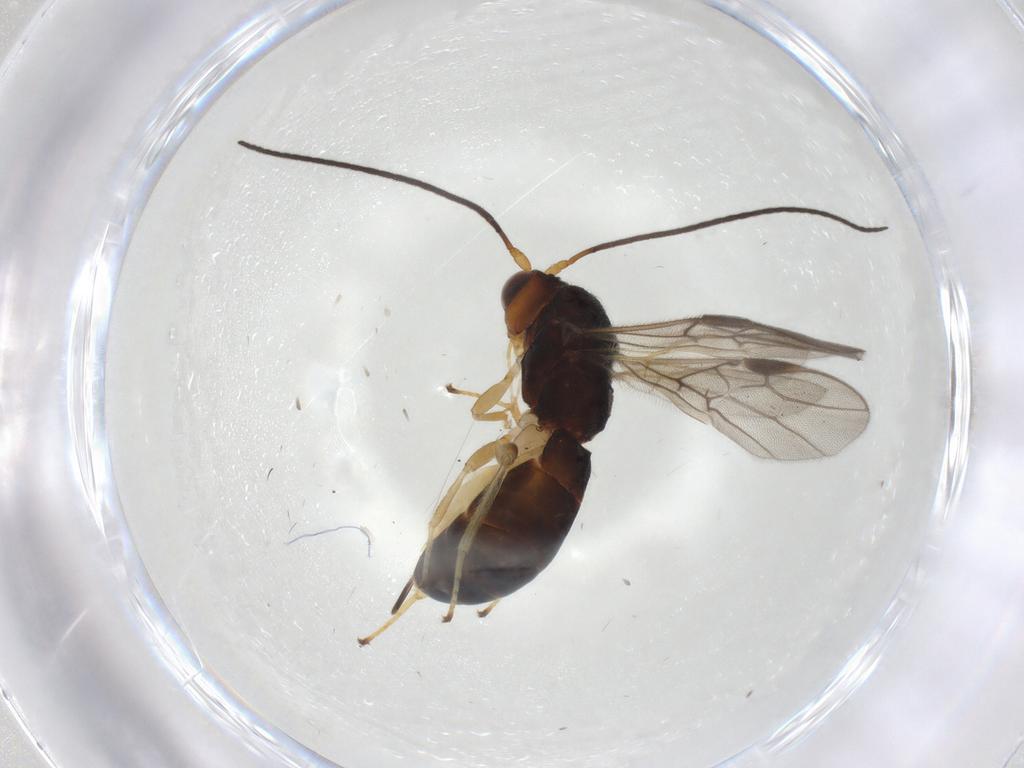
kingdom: Animalia
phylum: Arthropoda
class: Insecta
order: Hymenoptera
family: Braconidae
